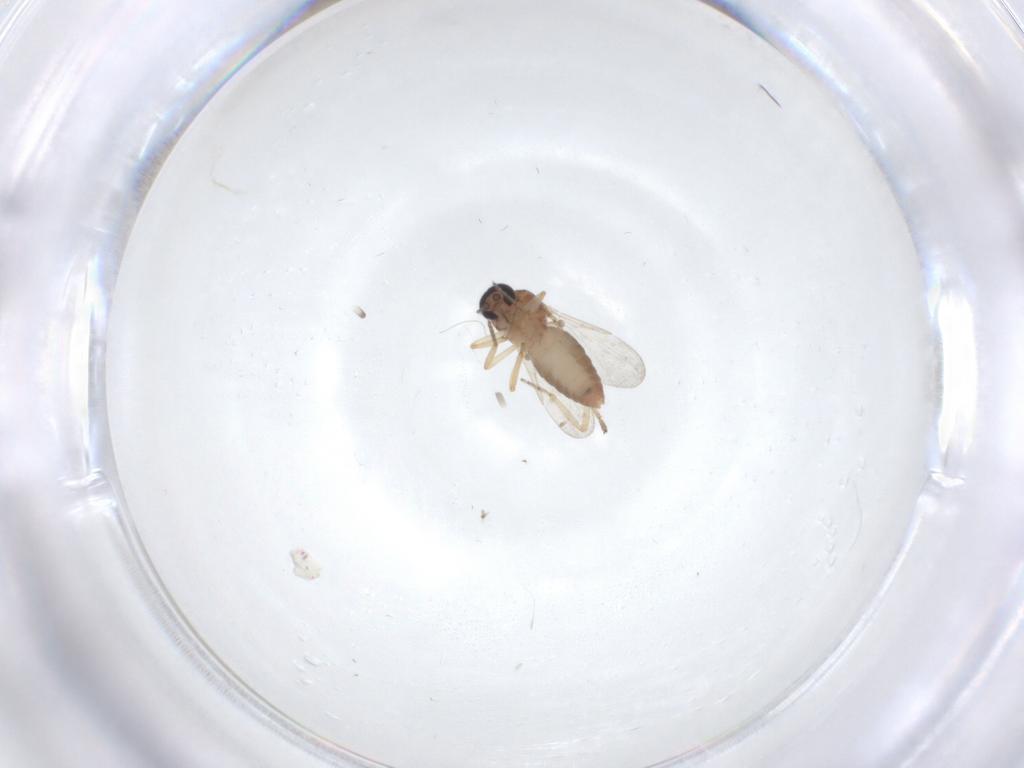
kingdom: Animalia
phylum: Arthropoda
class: Insecta
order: Diptera
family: Ceratopogonidae
